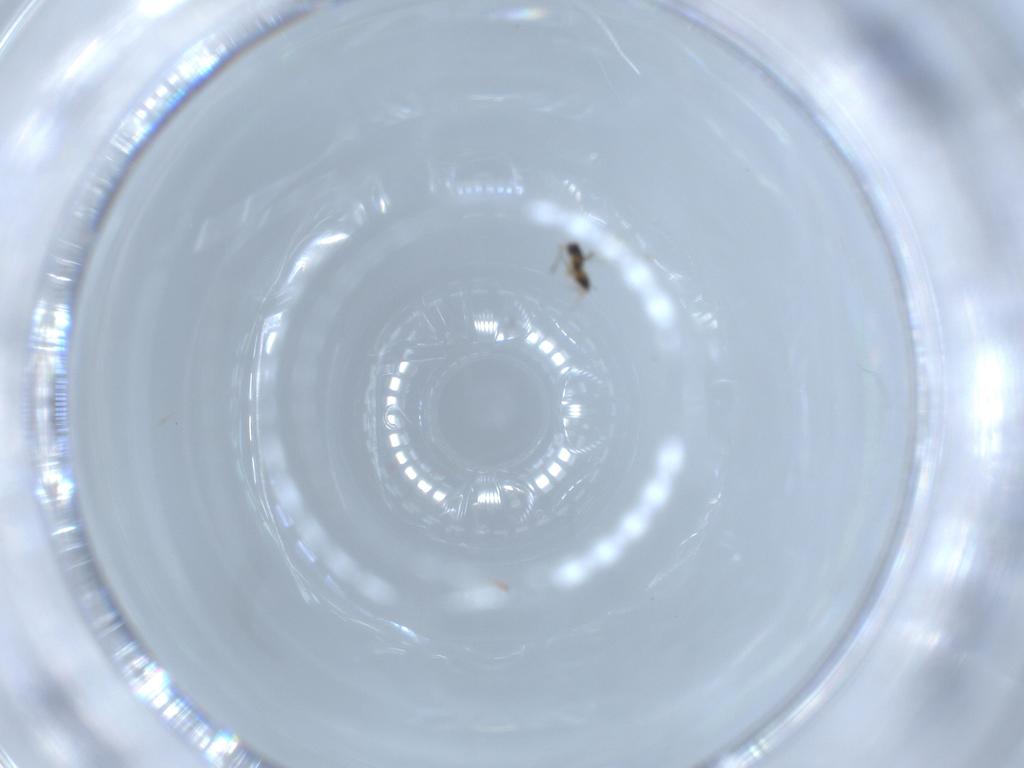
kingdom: Animalia
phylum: Arthropoda
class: Insecta
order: Hymenoptera
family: Mymaridae
